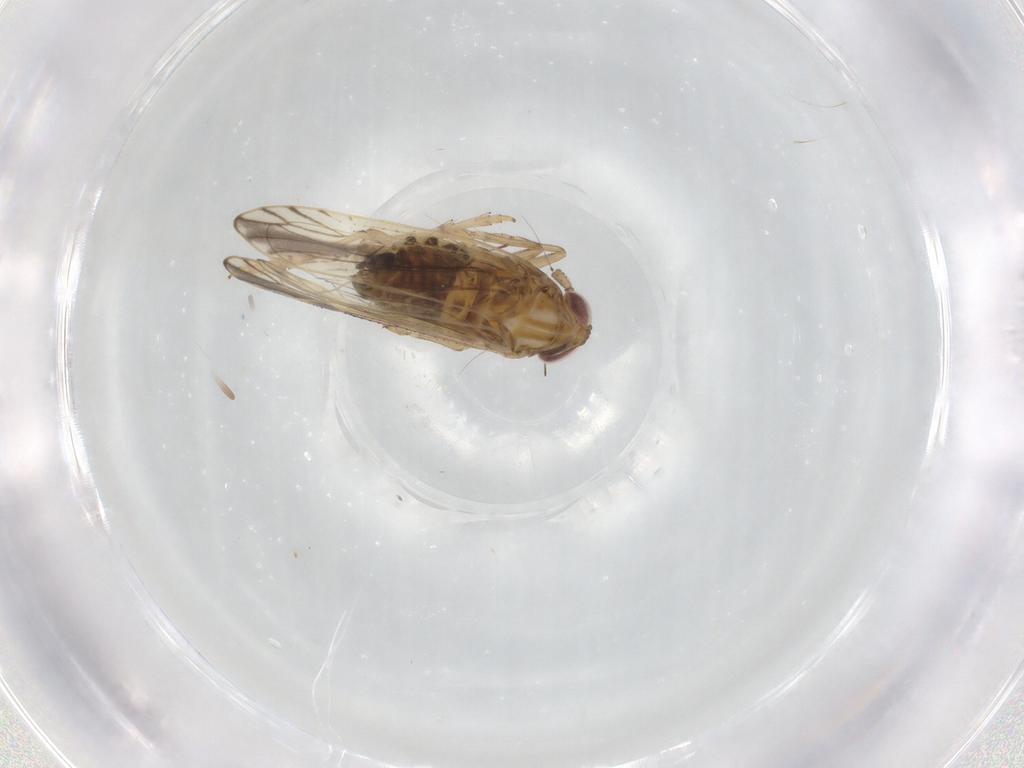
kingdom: Animalia
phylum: Arthropoda
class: Insecta
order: Hemiptera
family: Delphacidae
